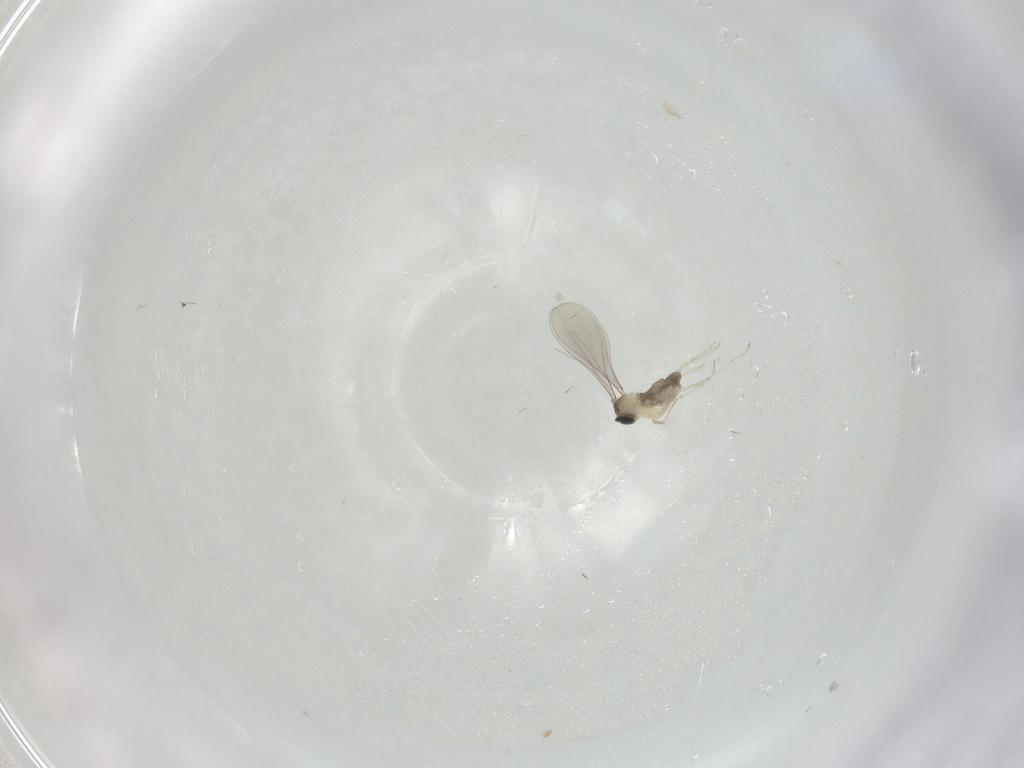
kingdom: Animalia
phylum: Arthropoda
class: Insecta
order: Diptera
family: Cecidomyiidae
